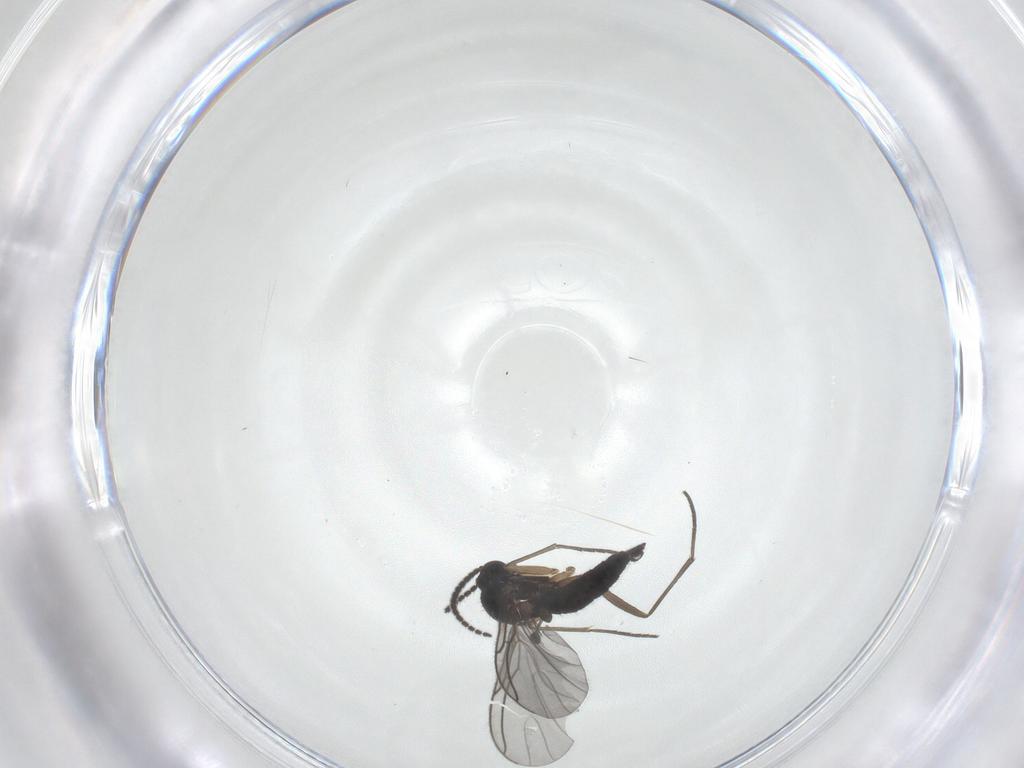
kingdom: Animalia
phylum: Arthropoda
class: Insecta
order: Diptera
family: Sciaridae
